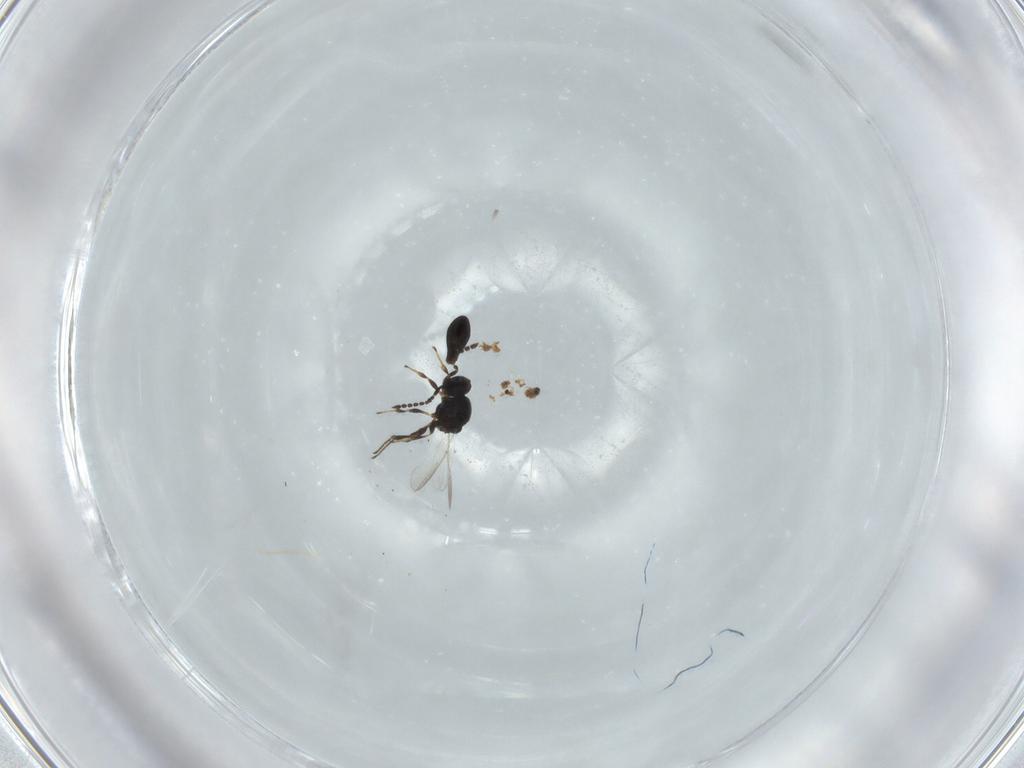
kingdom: Animalia
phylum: Arthropoda
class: Insecta
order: Hymenoptera
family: Platygastridae
